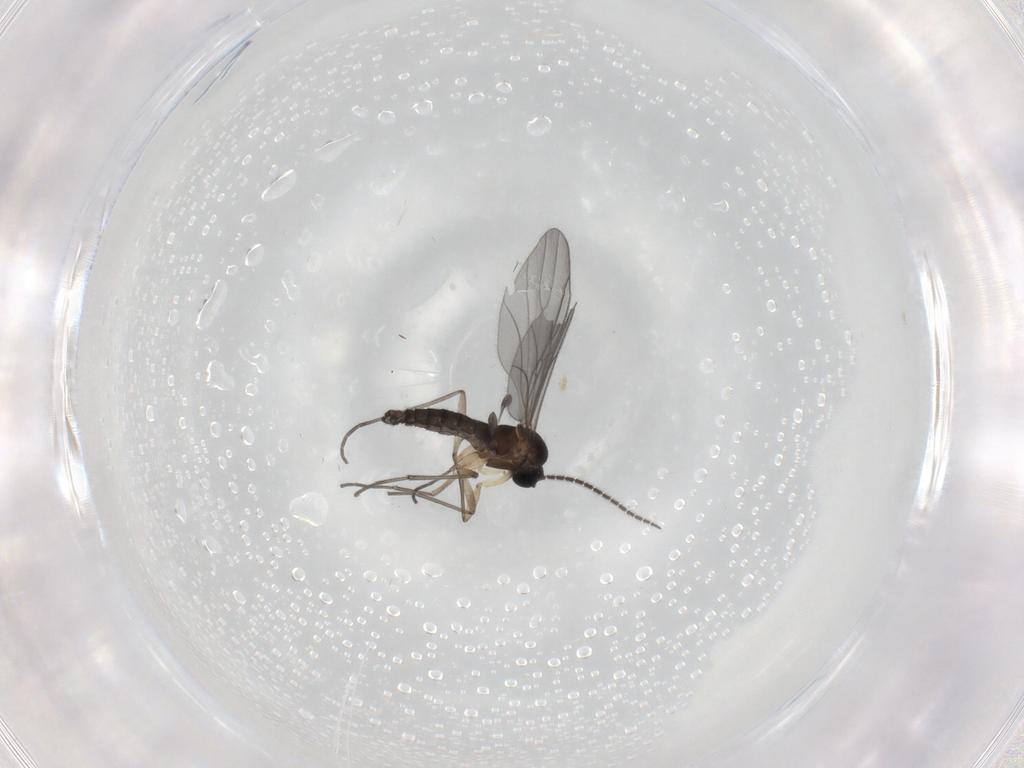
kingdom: Animalia
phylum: Arthropoda
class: Insecta
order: Diptera
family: Sciaridae
